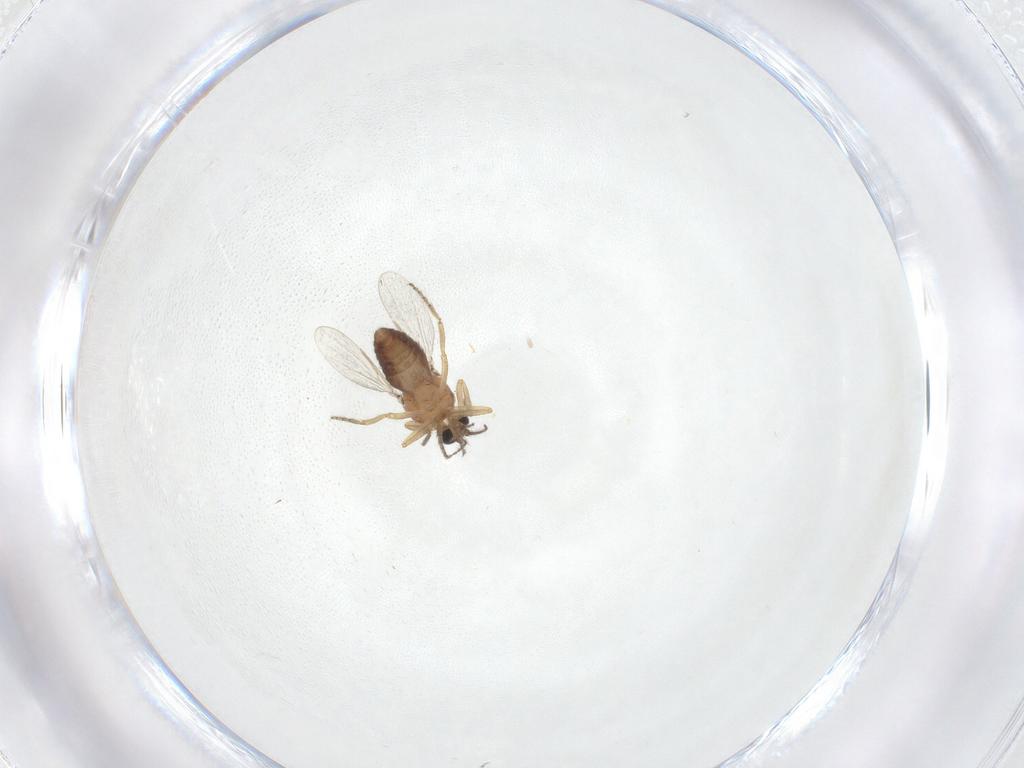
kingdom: Animalia
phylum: Arthropoda
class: Insecta
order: Diptera
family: Ceratopogonidae
